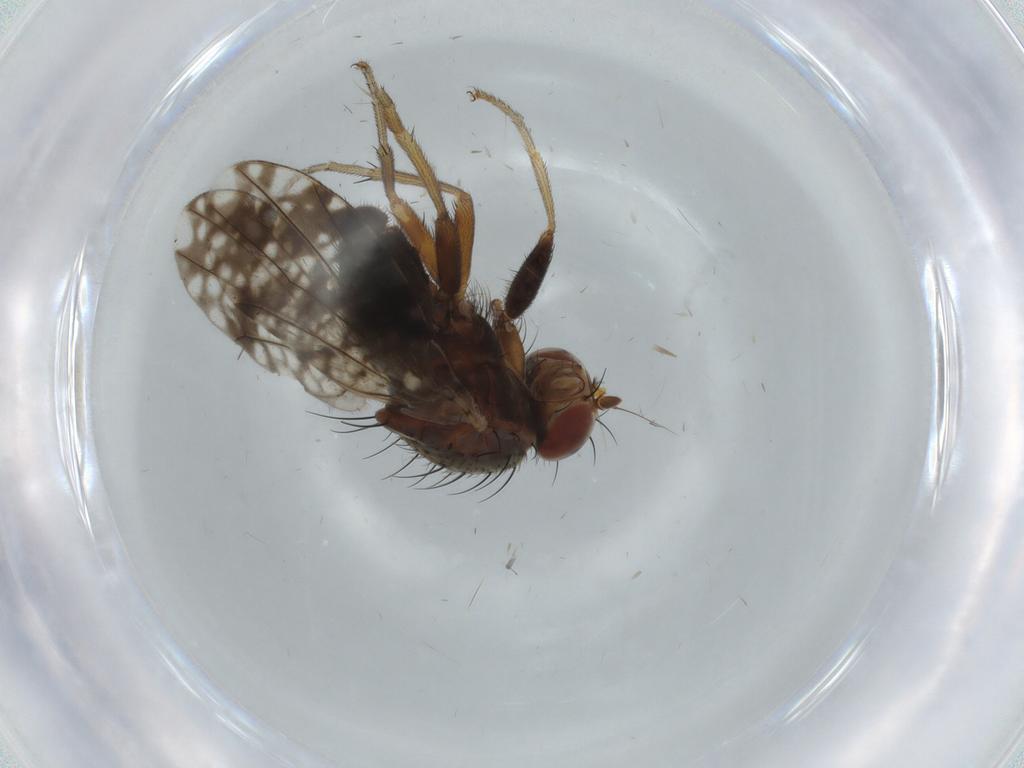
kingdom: Animalia
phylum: Arthropoda
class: Insecta
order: Diptera
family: Tephritidae
